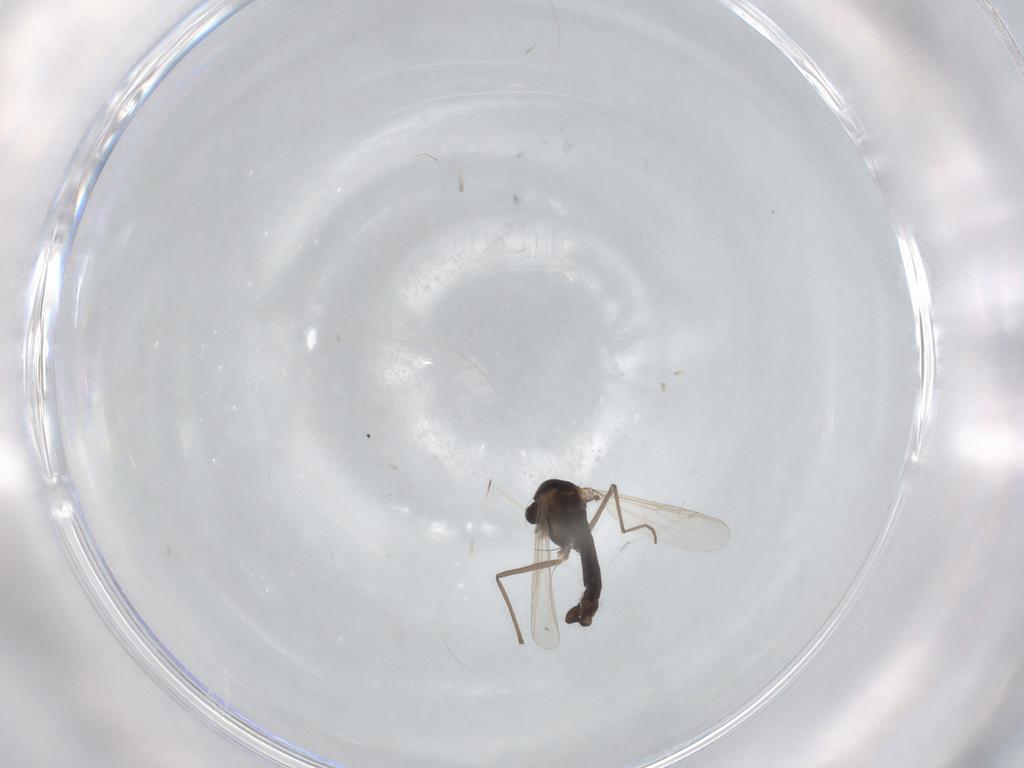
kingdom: Animalia
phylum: Arthropoda
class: Insecta
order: Diptera
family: Chironomidae
